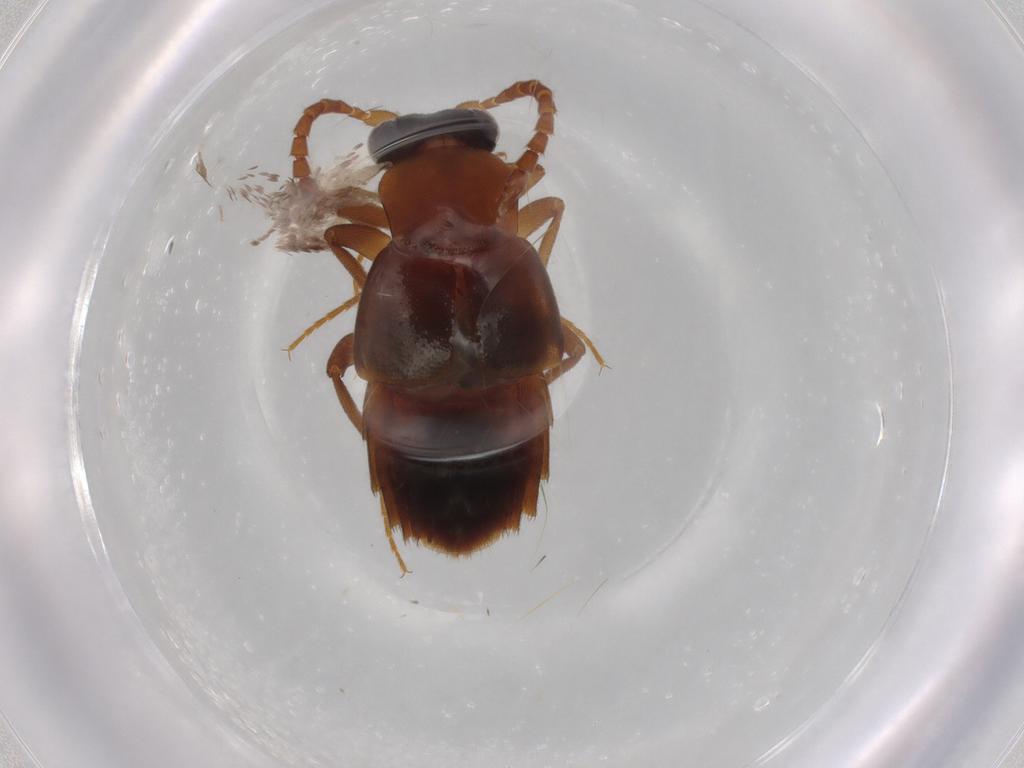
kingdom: Animalia
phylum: Arthropoda
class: Insecta
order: Coleoptera
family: Staphylinidae
